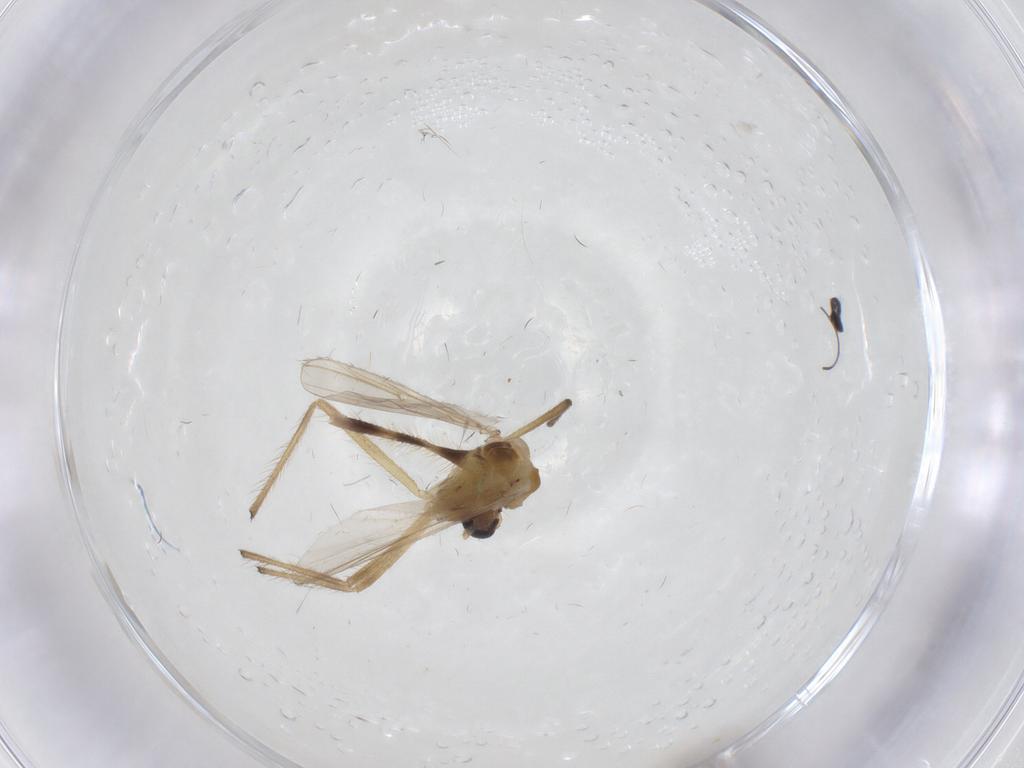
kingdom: Animalia
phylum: Arthropoda
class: Insecta
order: Diptera
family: Chironomidae
